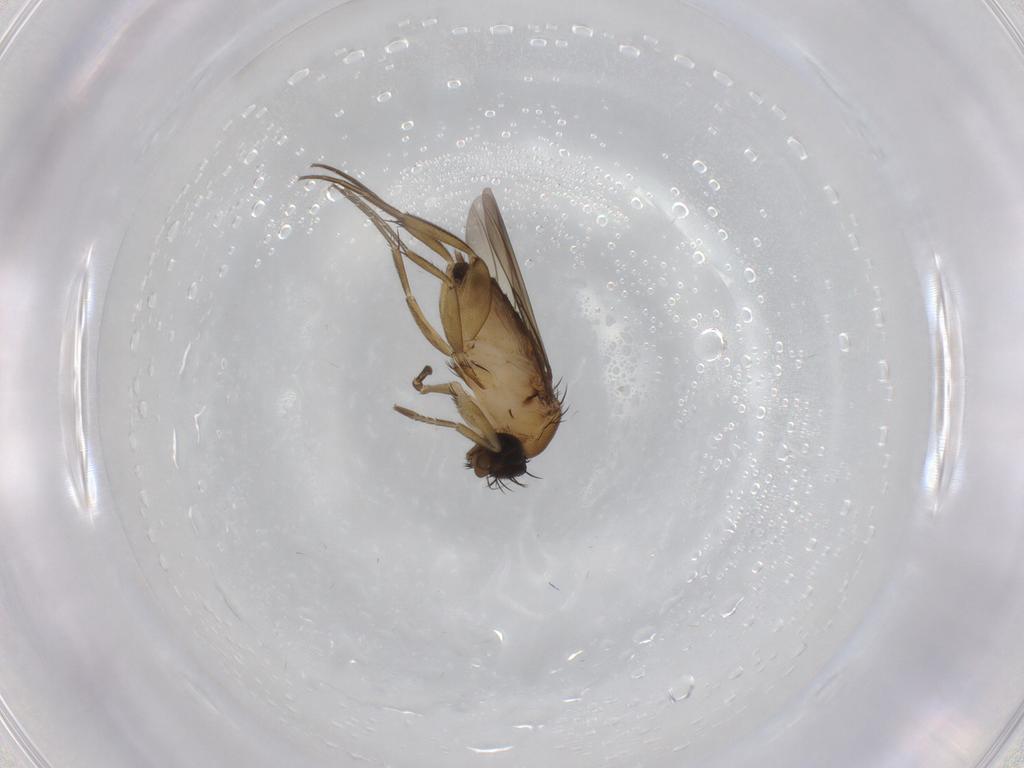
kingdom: Animalia
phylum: Arthropoda
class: Insecta
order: Diptera
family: Phoridae
